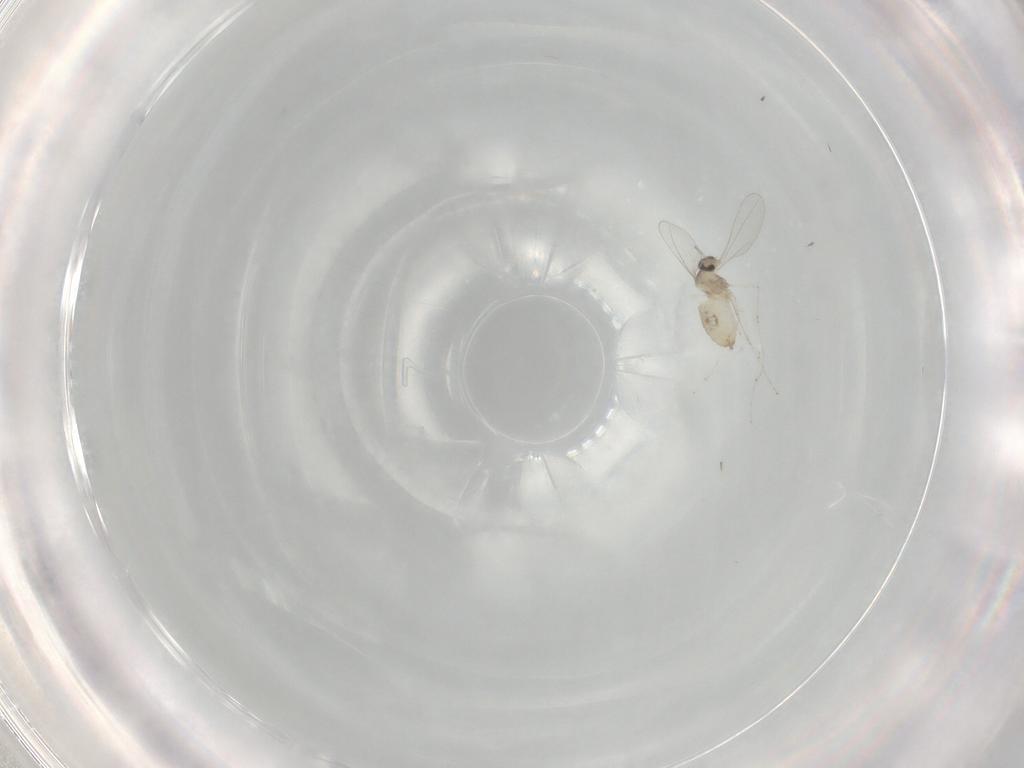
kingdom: Animalia
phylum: Arthropoda
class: Insecta
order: Diptera
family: Cecidomyiidae
